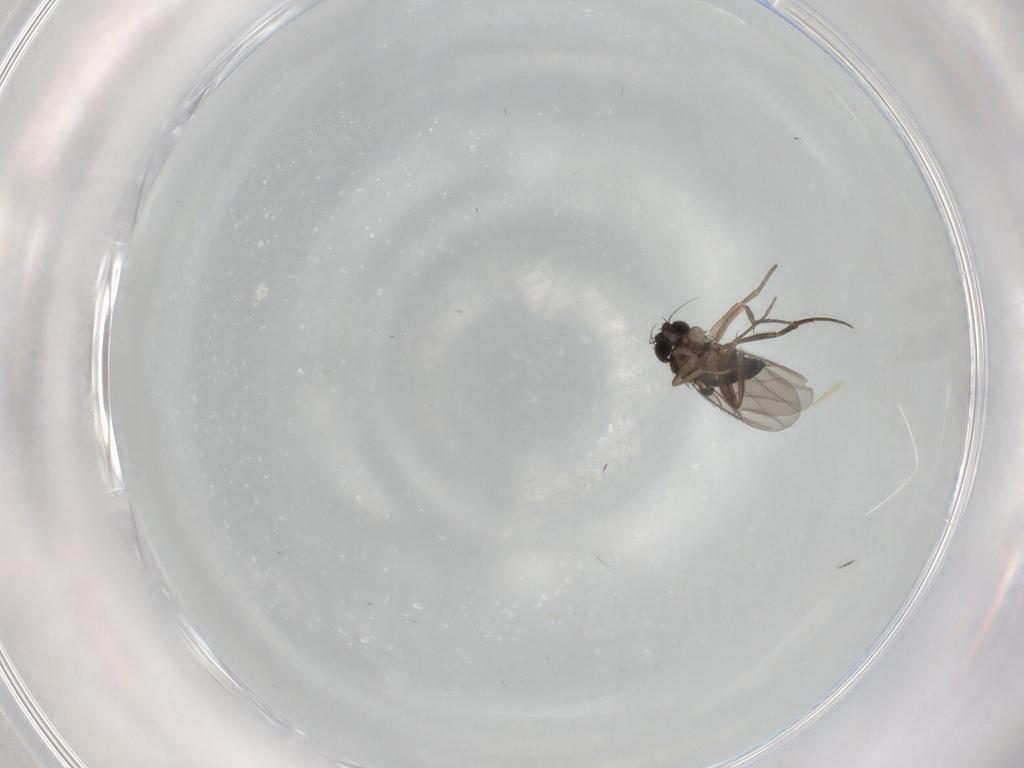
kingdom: Animalia
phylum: Arthropoda
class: Insecta
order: Diptera
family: Phoridae
